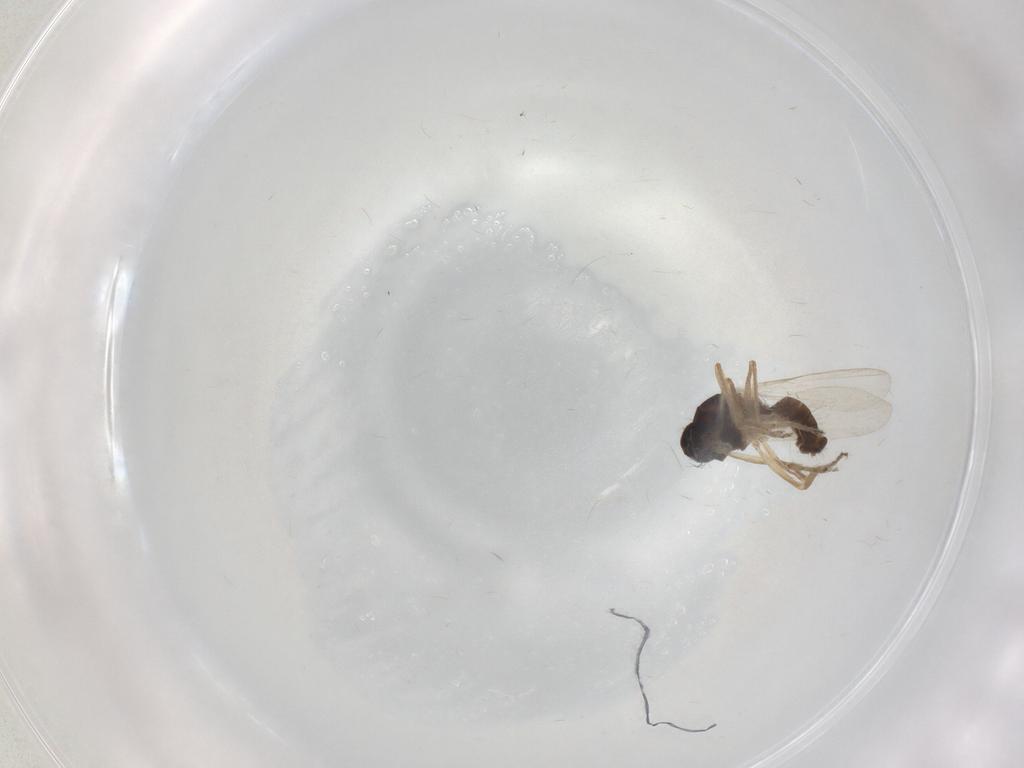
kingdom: Animalia
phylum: Arthropoda
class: Insecta
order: Diptera
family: Ceratopogonidae
